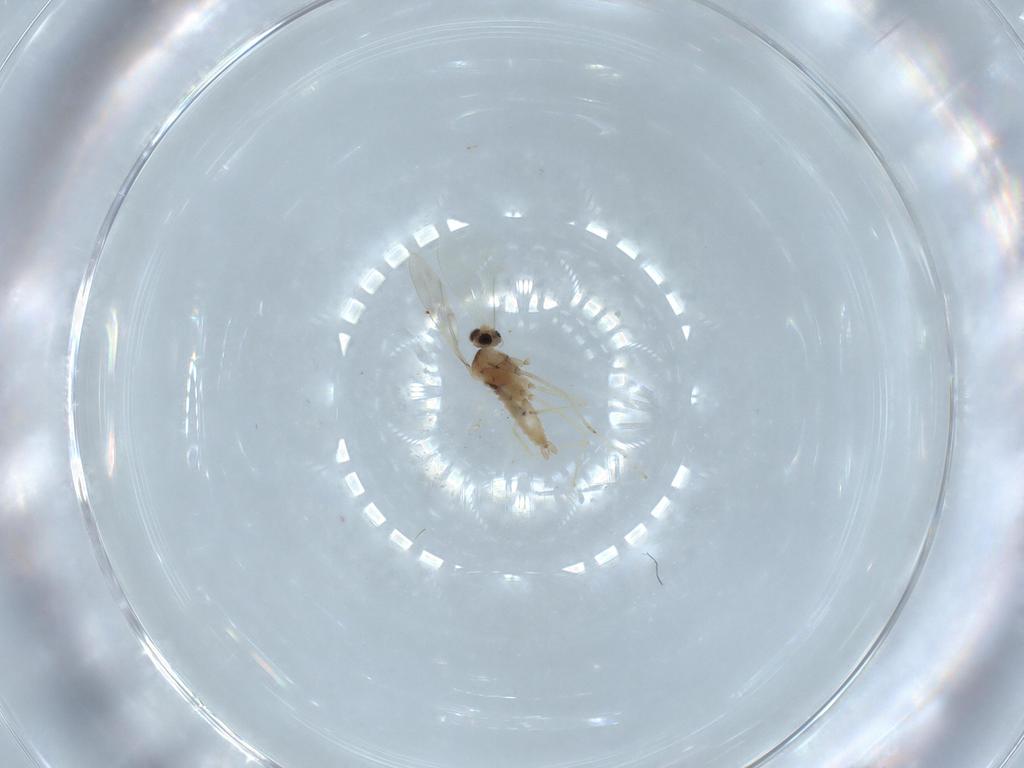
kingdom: Animalia
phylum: Arthropoda
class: Insecta
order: Diptera
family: Cecidomyiidae
